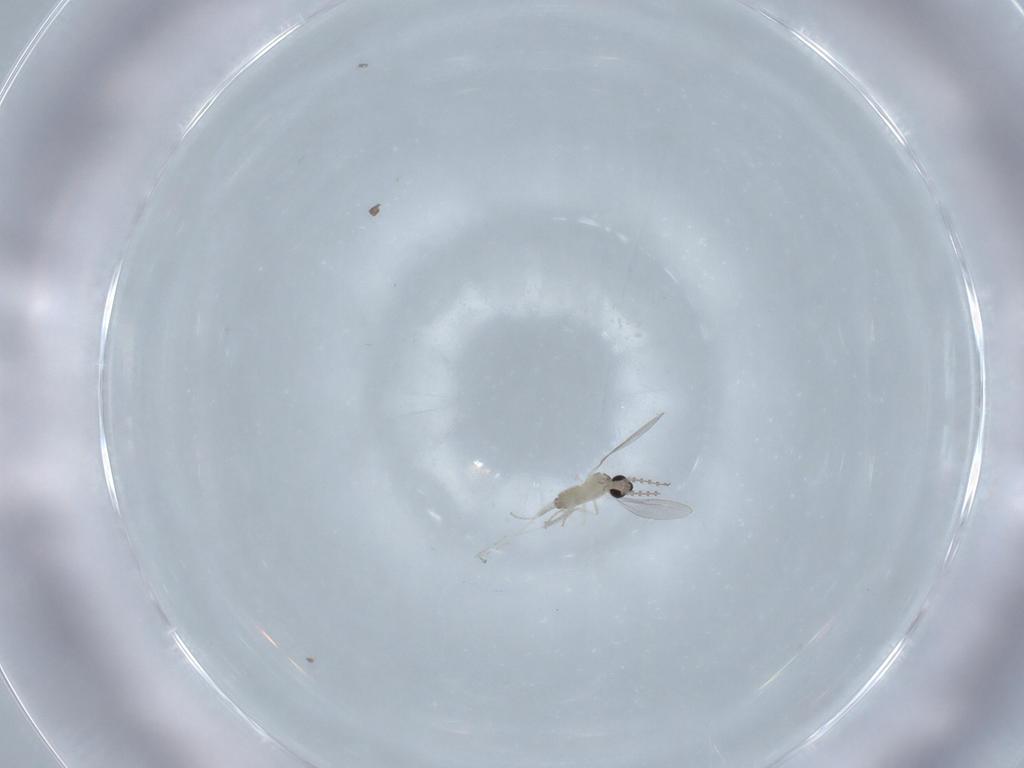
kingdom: Animalia
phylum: Arthropoda
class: Insecta
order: Diptera
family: Cecidomyiidae
